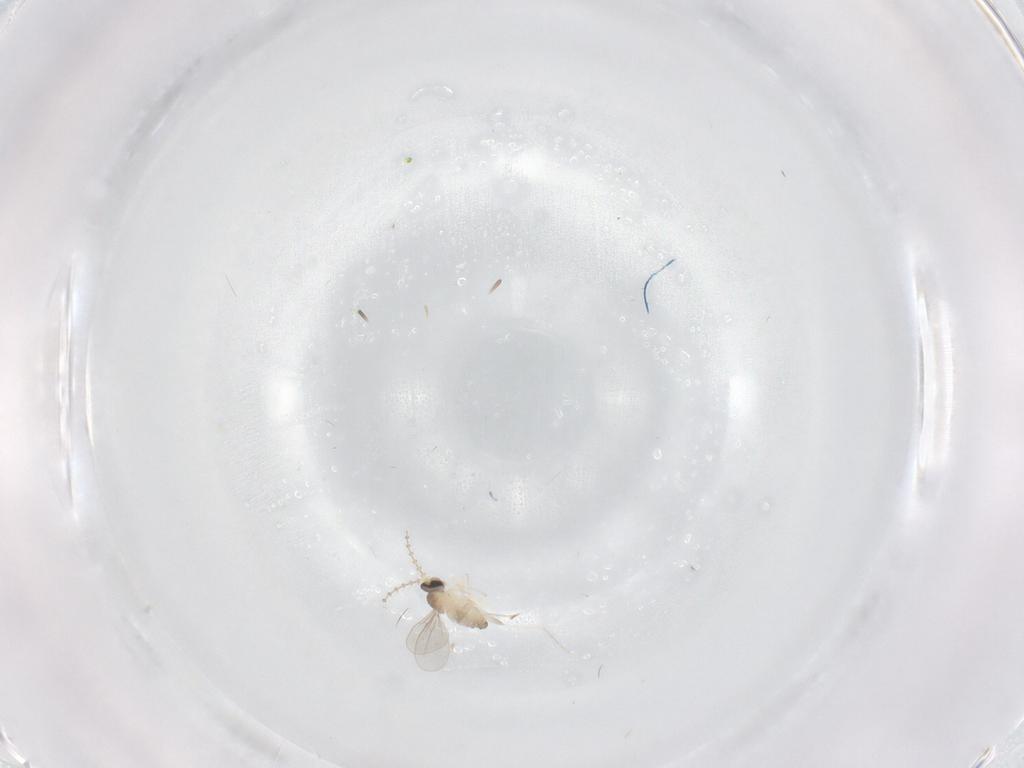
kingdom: Animalia
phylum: Arthropoda
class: Insecta
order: Diptera
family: Cecidomyiidae
